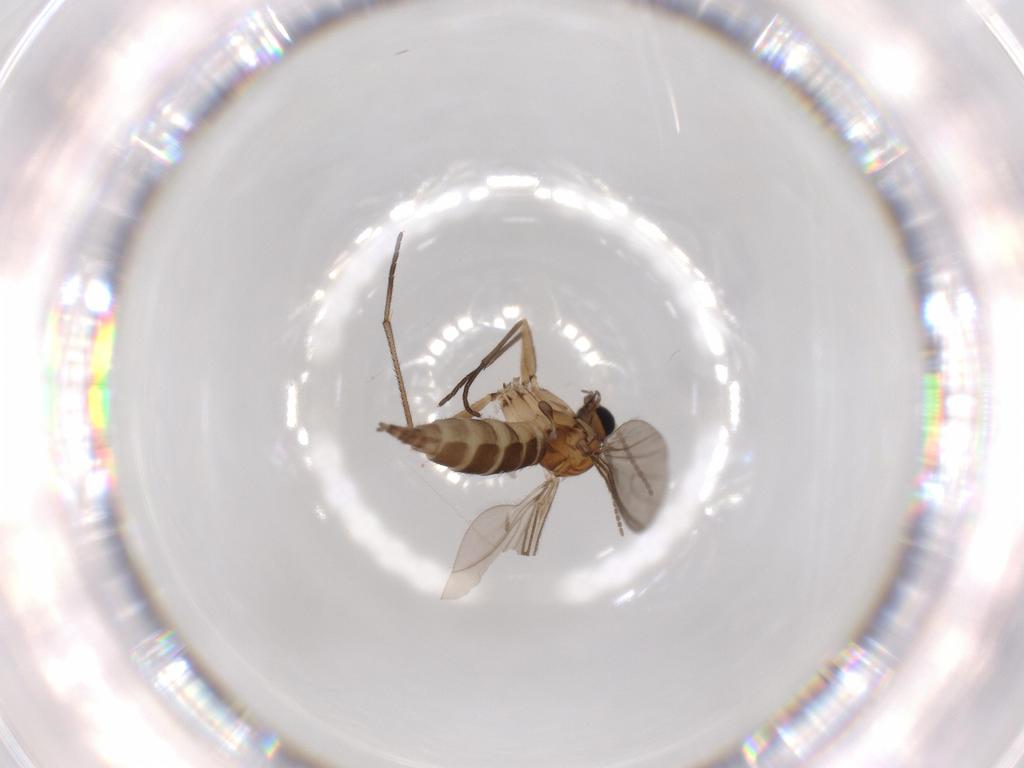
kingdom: Animalia
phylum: Arthropoda
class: Insecta
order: Diptera
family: Sciaridae
